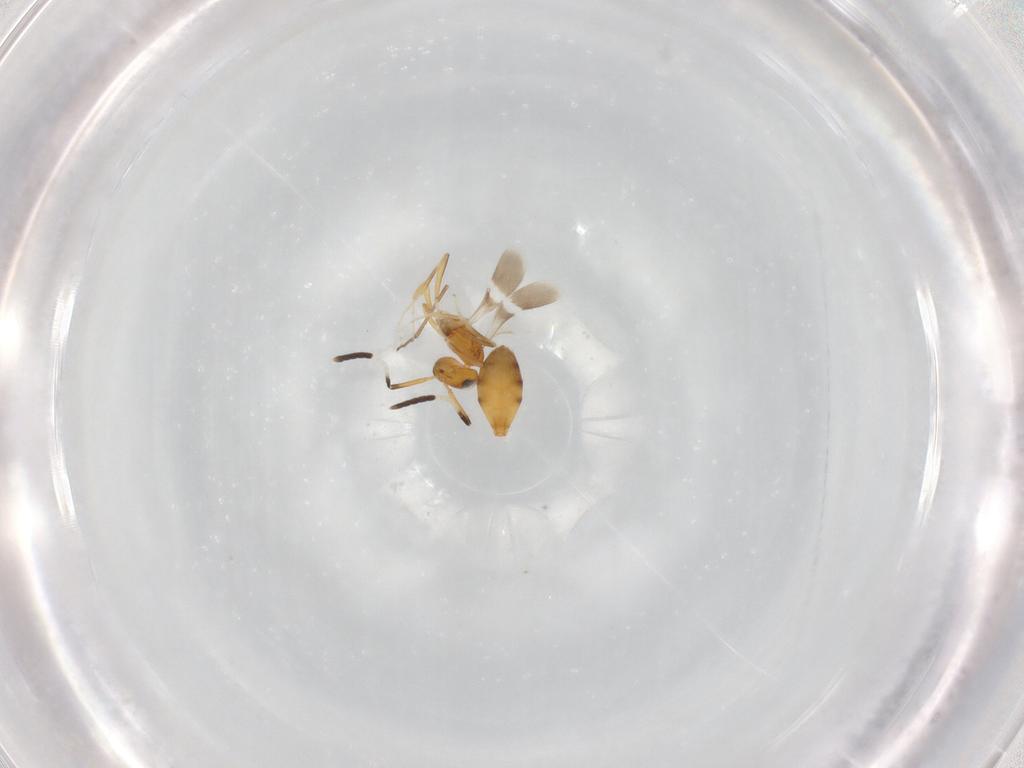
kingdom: Animalia
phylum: Arthropoda
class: Insecta
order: Hymenoptera
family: Scelionidae
